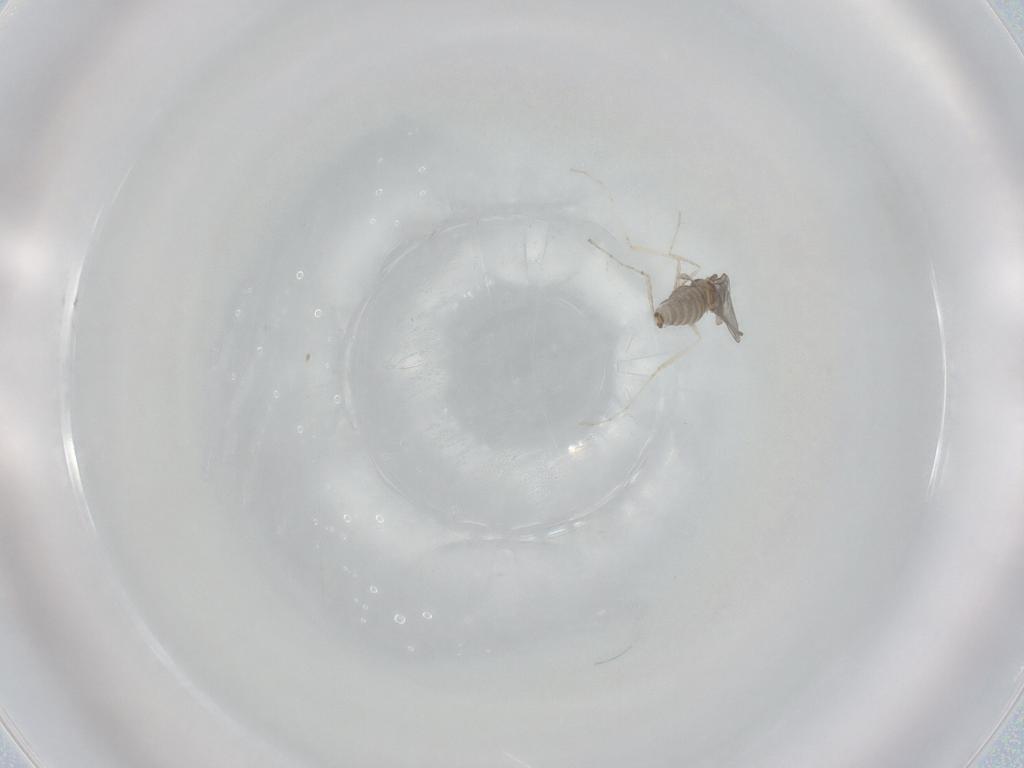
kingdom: Animalia
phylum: Arthropoda
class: Insecta
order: Diptera
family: Cecidomyiidae
